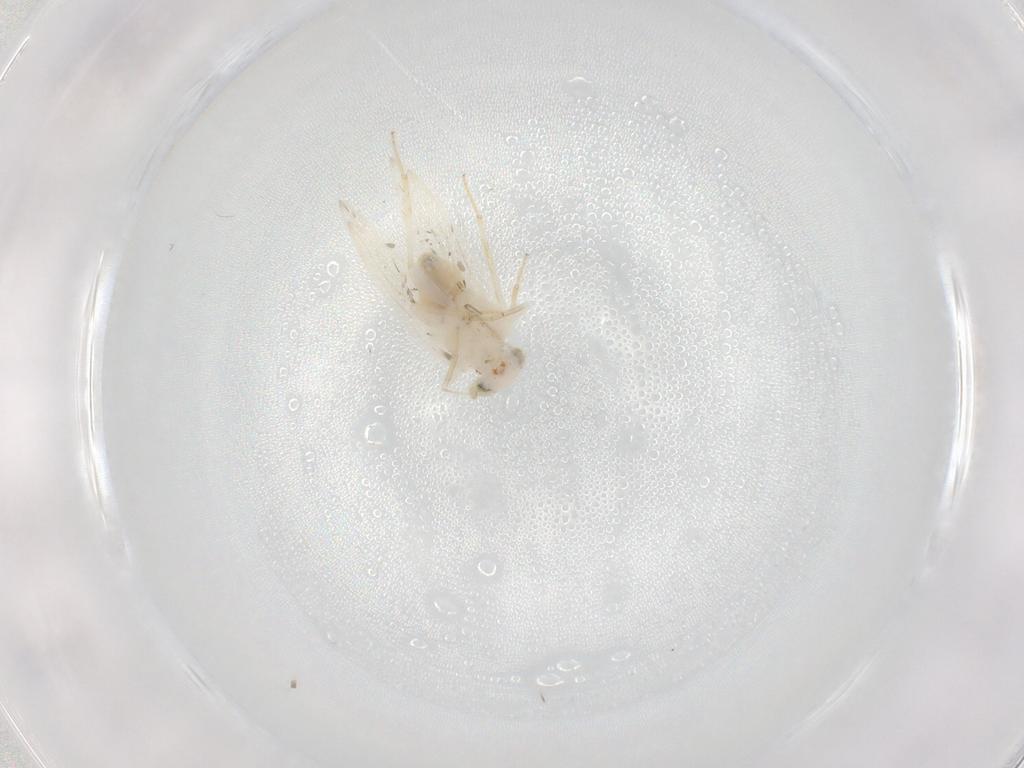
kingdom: Animalia
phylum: Arthropoda
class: Insecta
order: Psocodea
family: Lepidopsocidae
